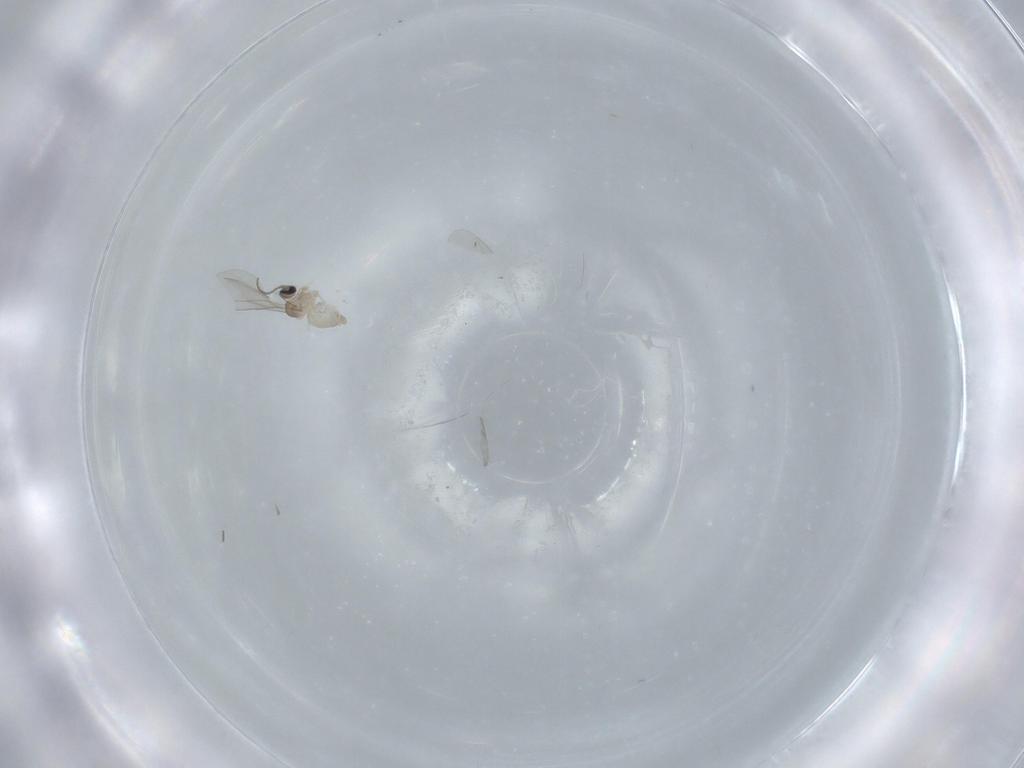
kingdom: Animalia
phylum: Arthropoda
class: Insecta
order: Diptera
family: Cecidomyiidae
